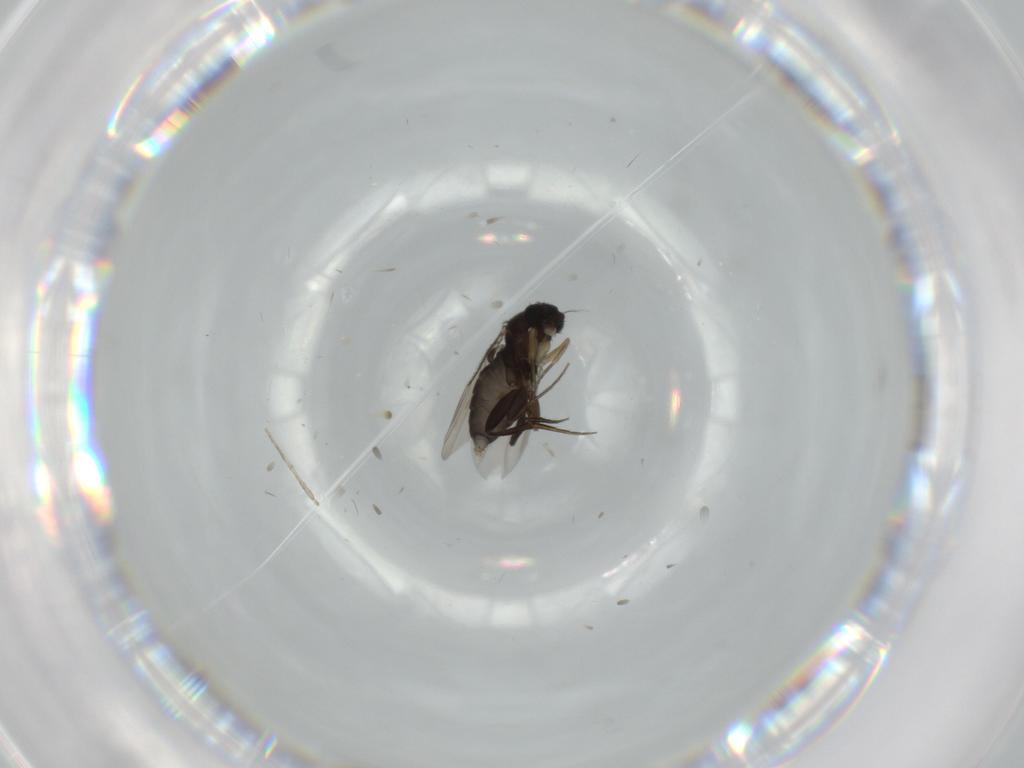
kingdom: Animalia
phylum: Arthropoda
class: Insecta
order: Diptera
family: Phoridae
